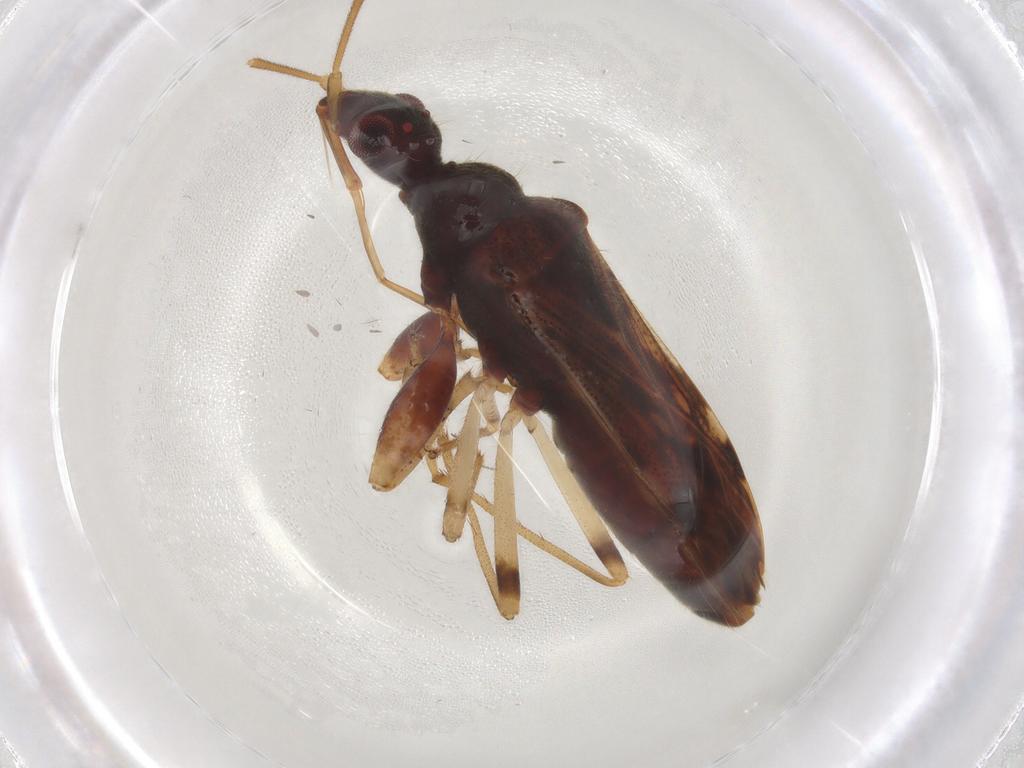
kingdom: Animalia
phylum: Arthropoda
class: Insecta
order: Hemiptera
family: Rhyparochromidae
